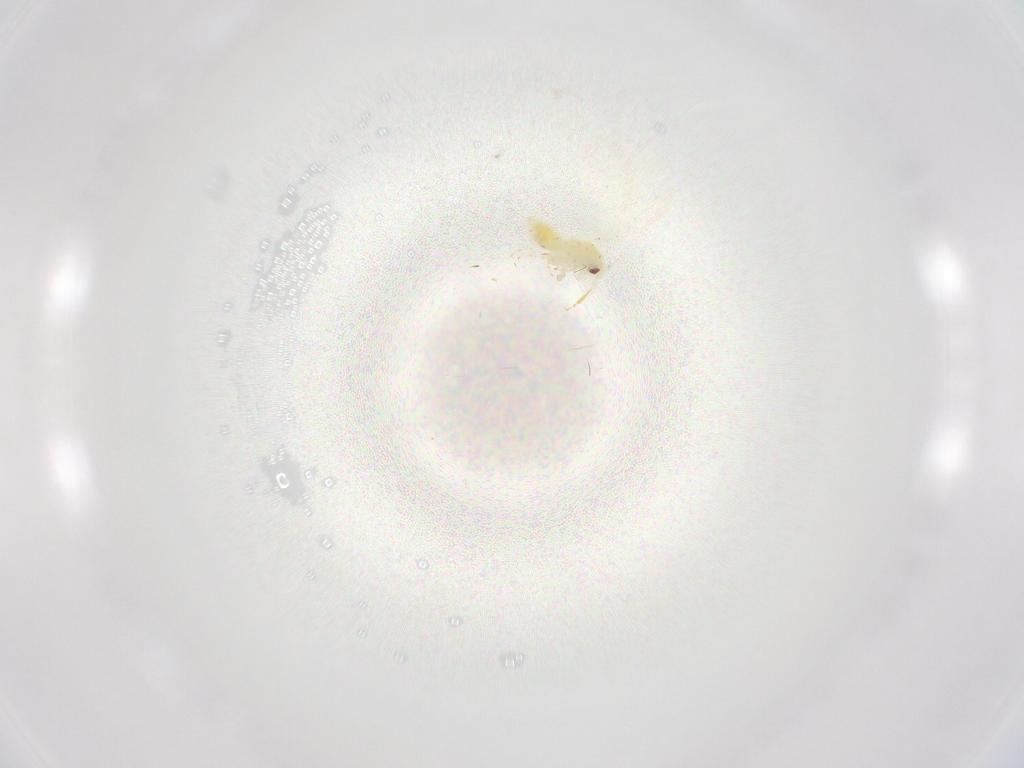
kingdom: Animalia
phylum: Arthropoda
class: Insecta
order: Hemiptera
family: Aleyrodidae
